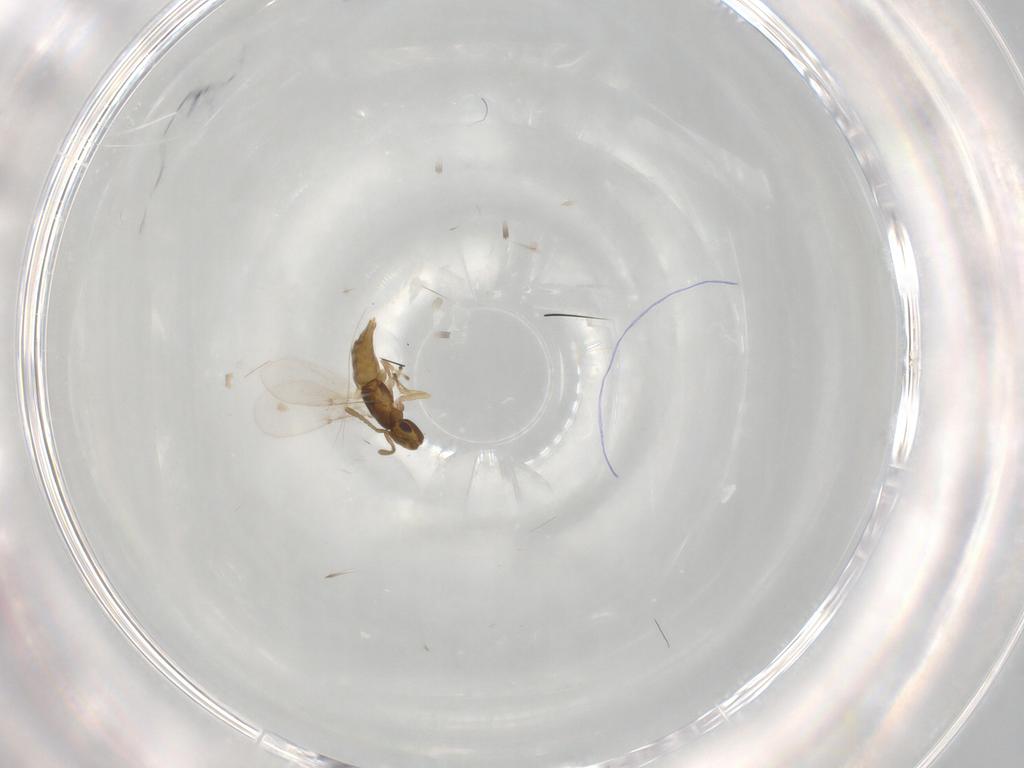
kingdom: Animalia
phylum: Arthropoda
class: Insecta
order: Hymenoptera
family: Encyrtidae
